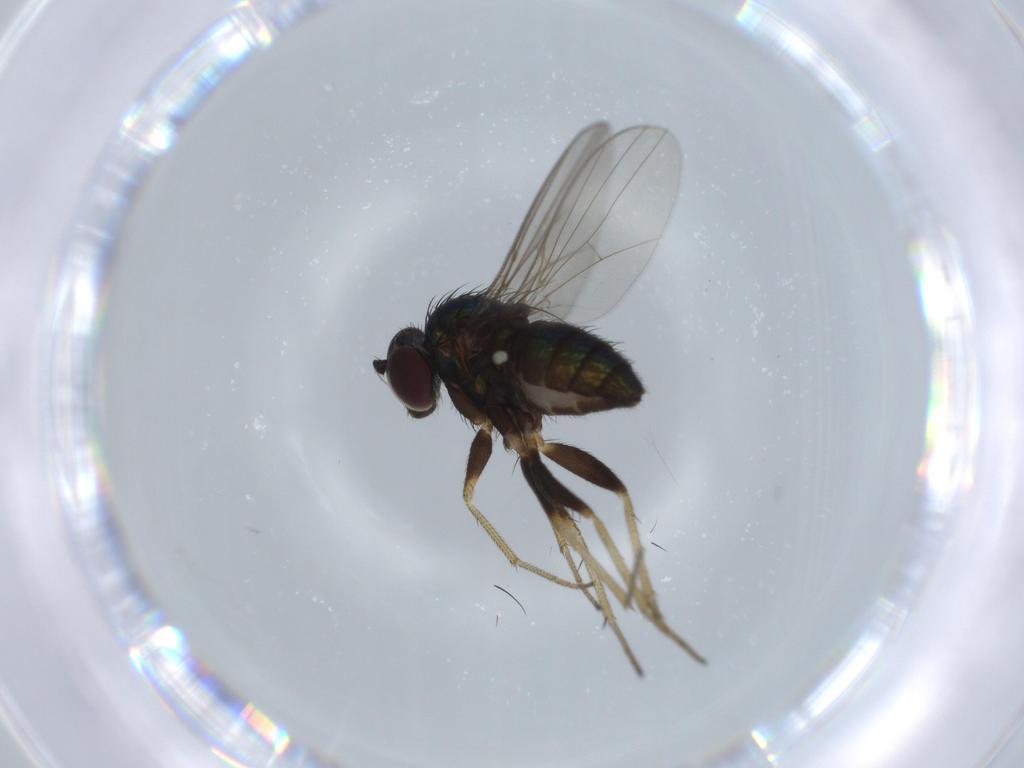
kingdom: Animalia
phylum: Arthropoda
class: Insecta
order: Diptera
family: Dolichopodidae
